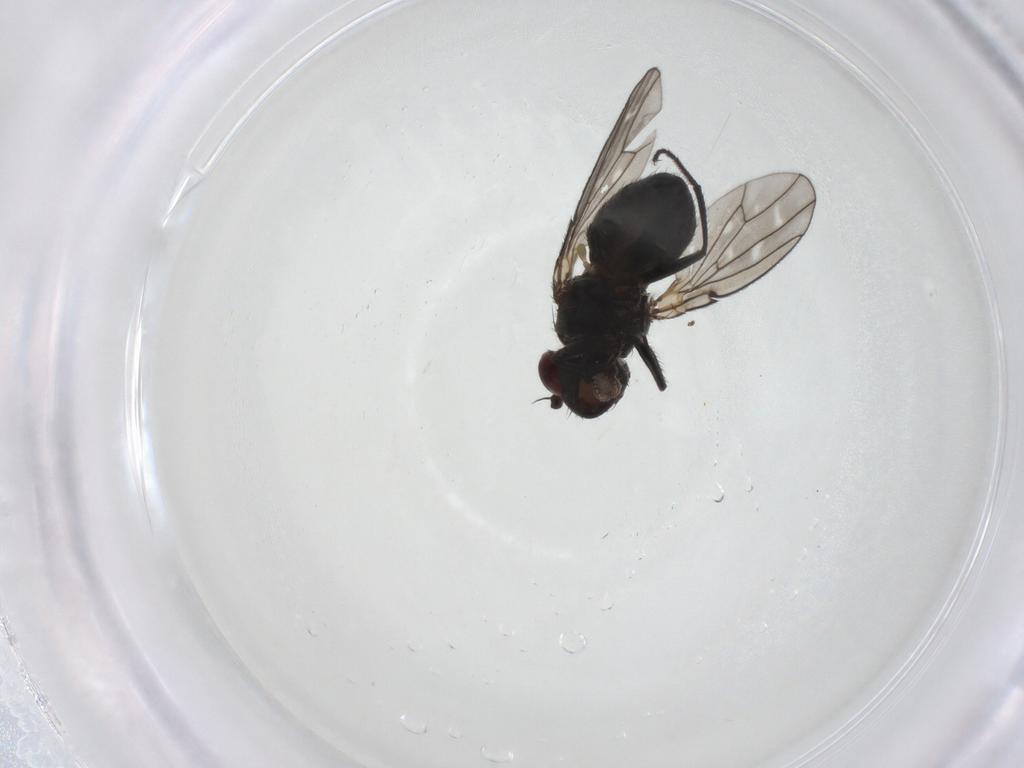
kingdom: Animalia
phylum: Arthropoda
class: Insecta
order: Diptera
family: Ephydridae
